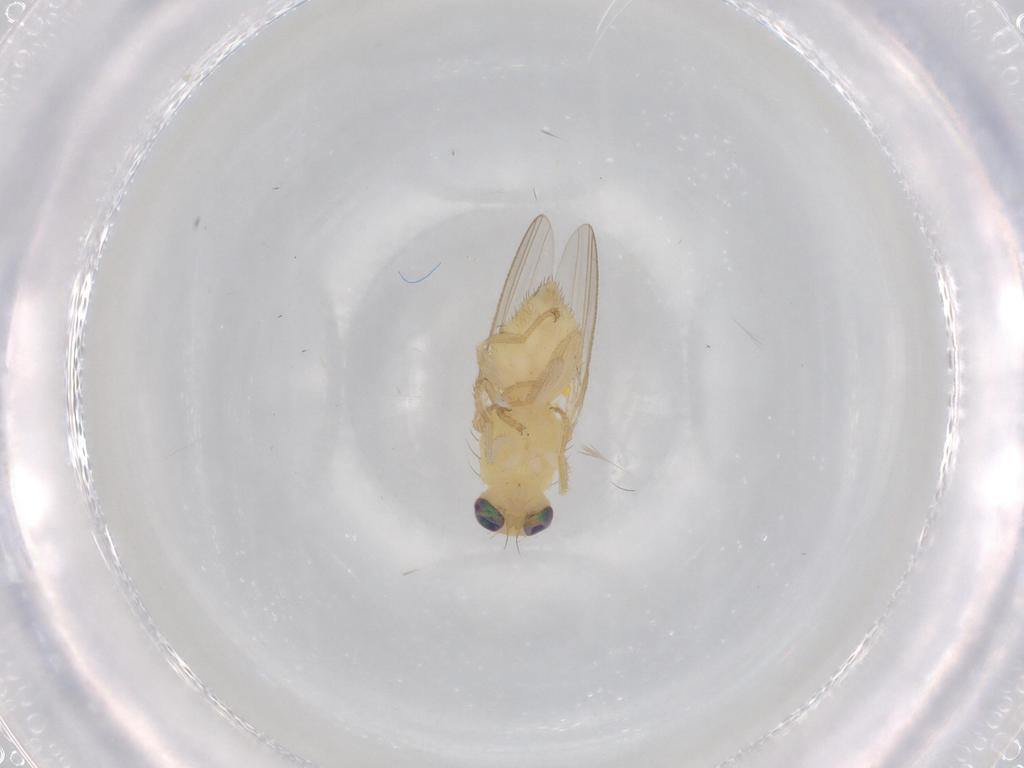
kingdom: Animalia
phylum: Arthropoda
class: Insecta
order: Diptera
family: Chyromyidae
